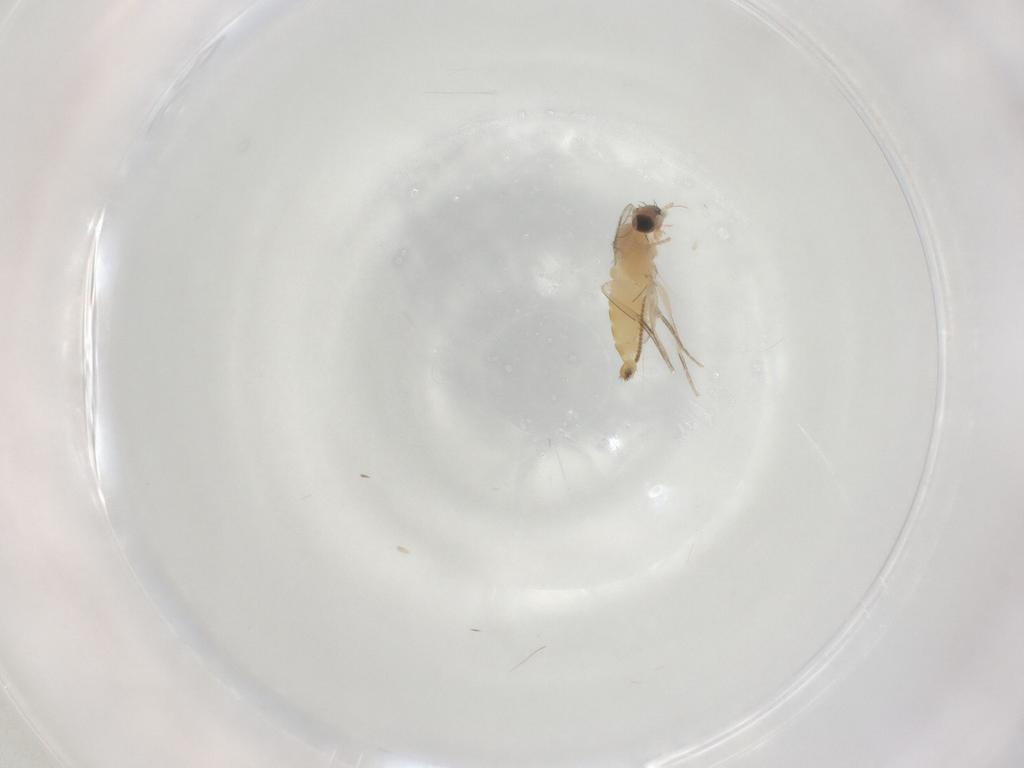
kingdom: Animalia
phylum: Arthropoda
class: Insecta
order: Diptera
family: Phoridae
